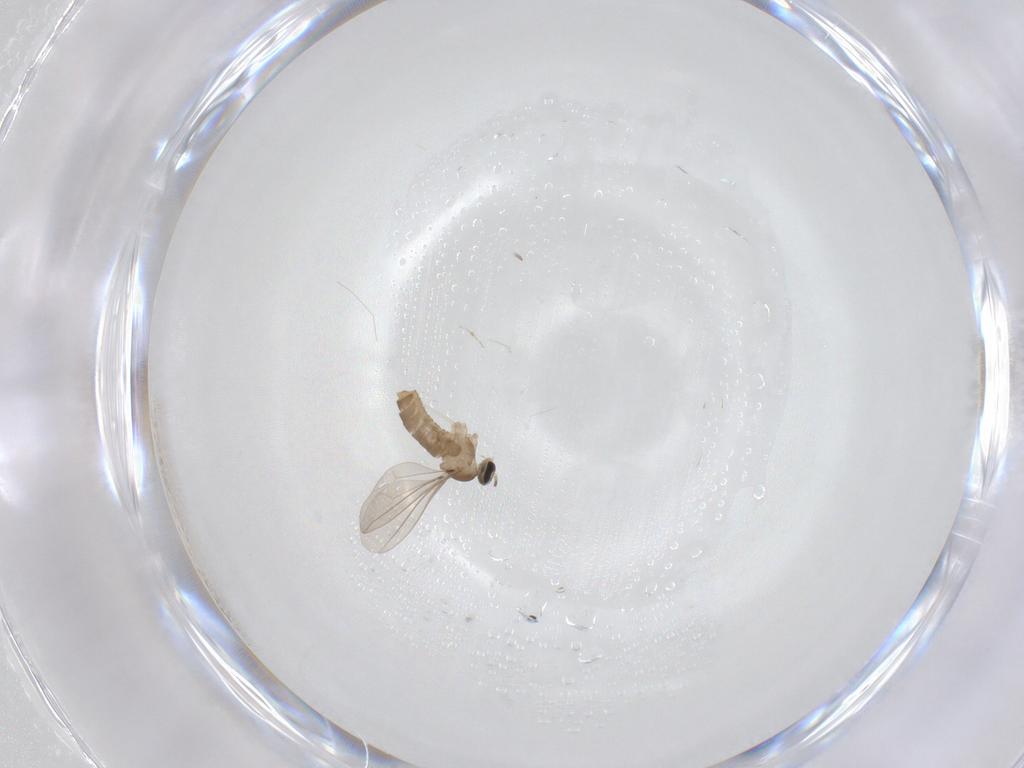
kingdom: Animalia
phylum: Arthropoda
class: Insecta
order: Diptera
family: Cecidomyiidae
